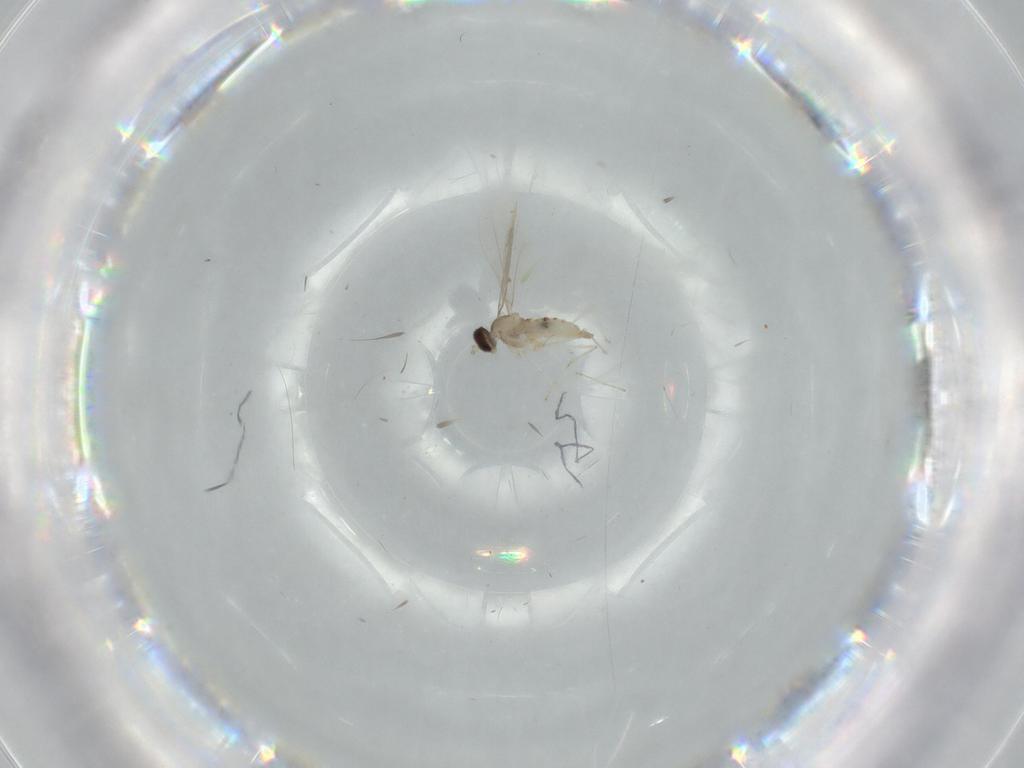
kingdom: Animalia
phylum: Arthropoda
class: Insecta
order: Diptera
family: Cecidomyiidae
